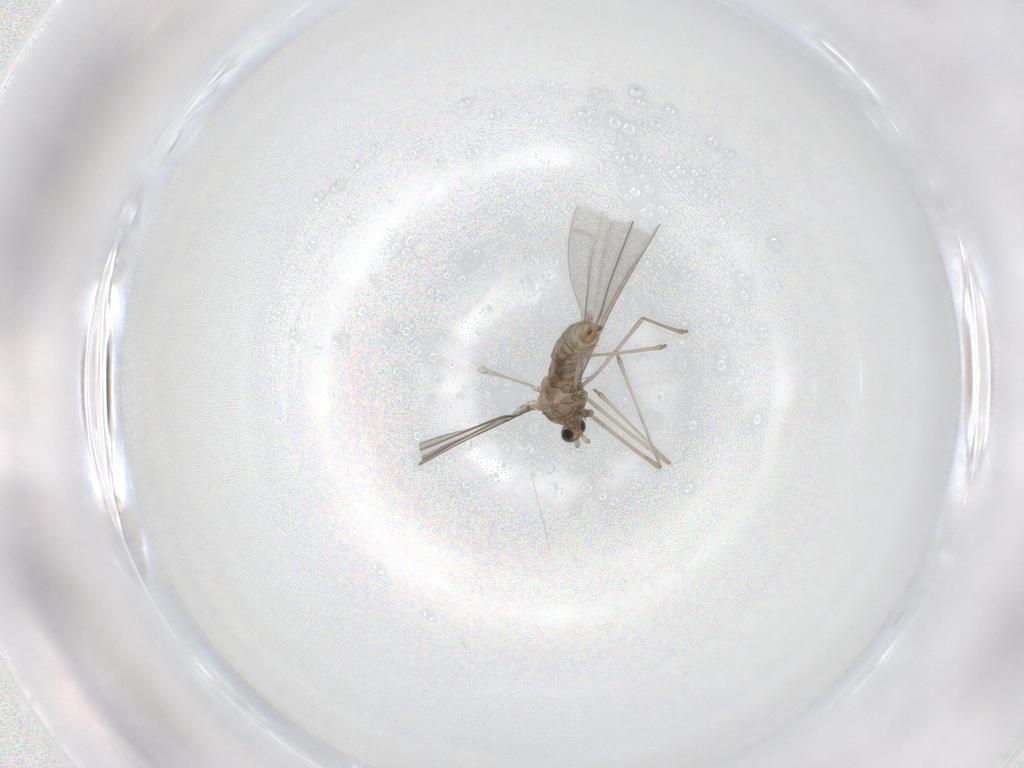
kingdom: Animalia
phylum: Arthropoda
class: Insecta
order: Diptera
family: Cecidomyiidae
